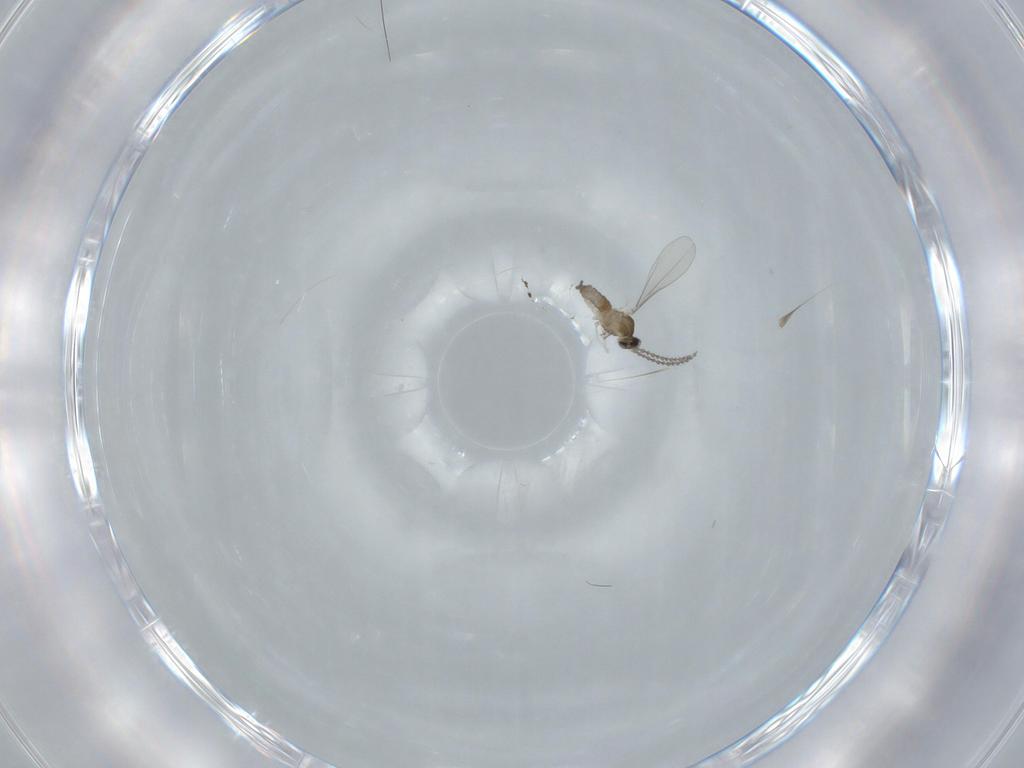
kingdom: Animalia
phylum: Arthropoda
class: Insecta
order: Diptera
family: Cecidomyiidae
